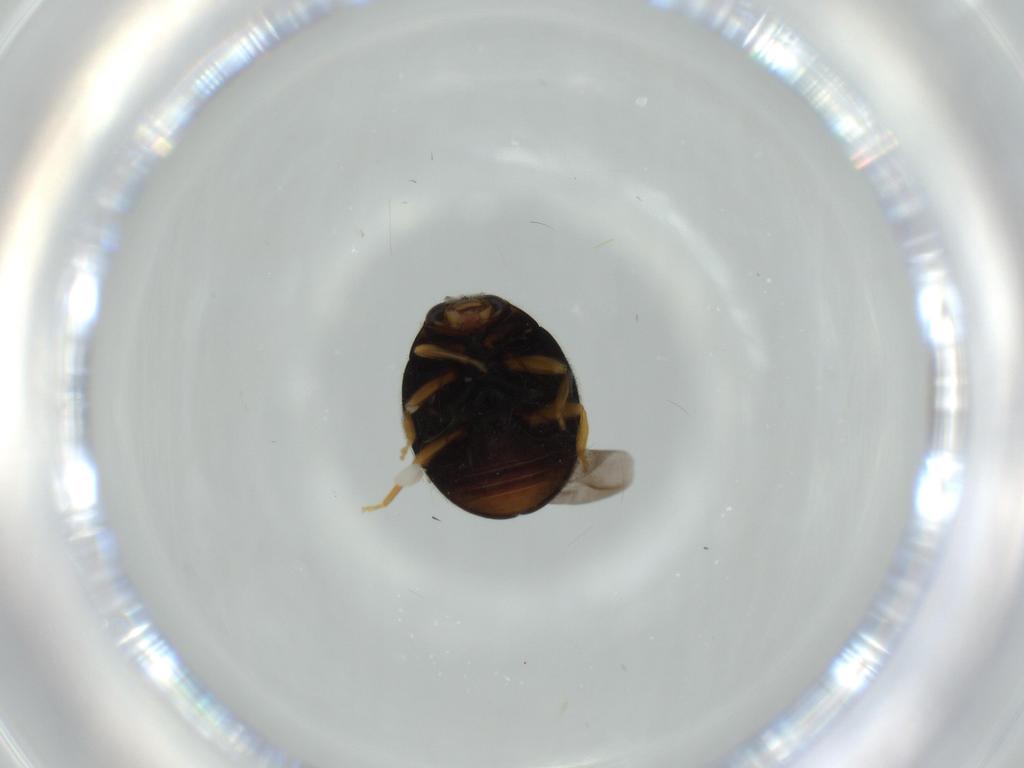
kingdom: Animalia
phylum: Arthropoda
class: Insecta
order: Coleoptera
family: Coccinellidae
